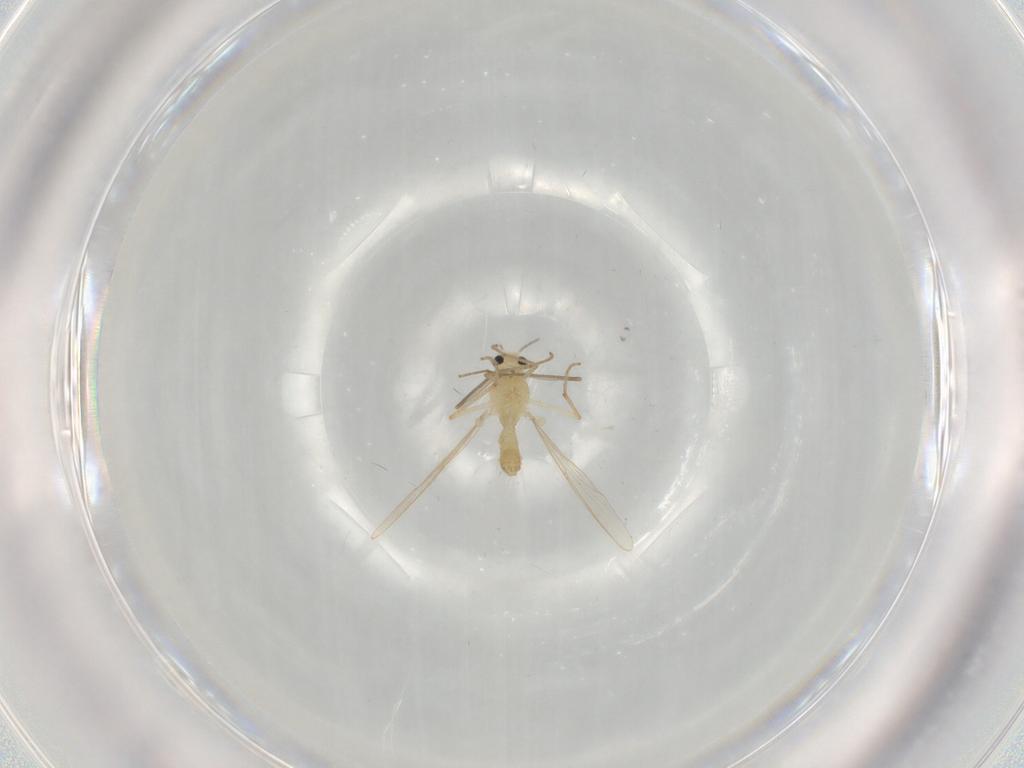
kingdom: Animalia
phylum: Arthropoda
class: Insecta
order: Diptera
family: Chironomidae
